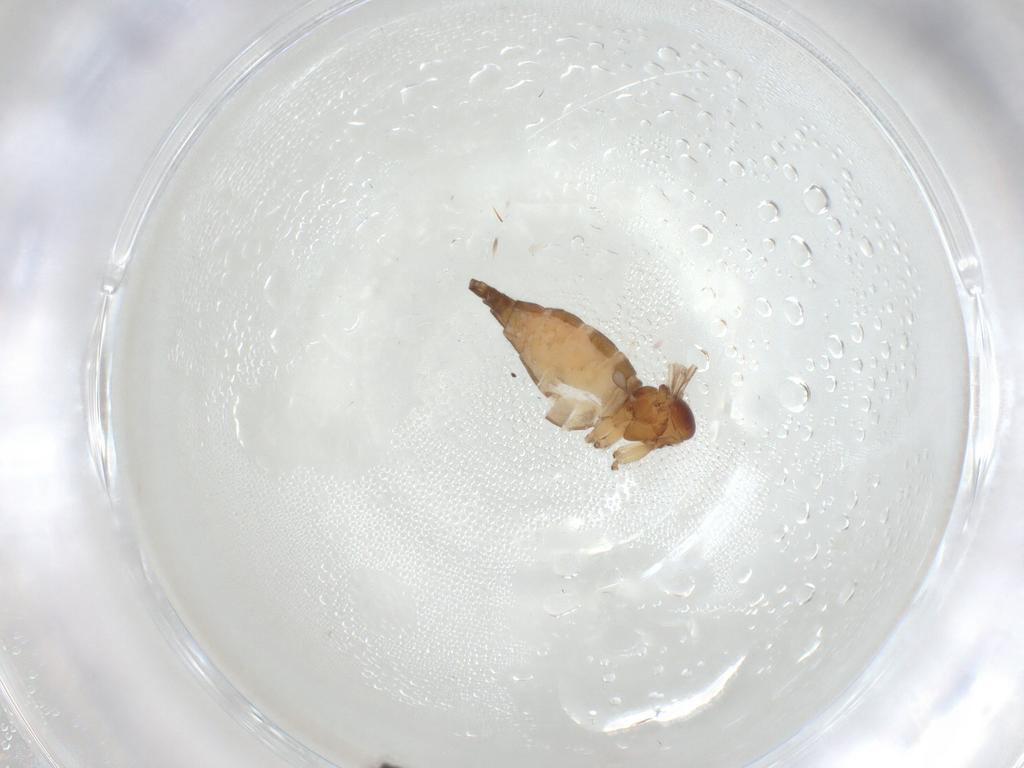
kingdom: Animalia
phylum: Arthropoda
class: Insecta
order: Diptera
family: Sciaridae
